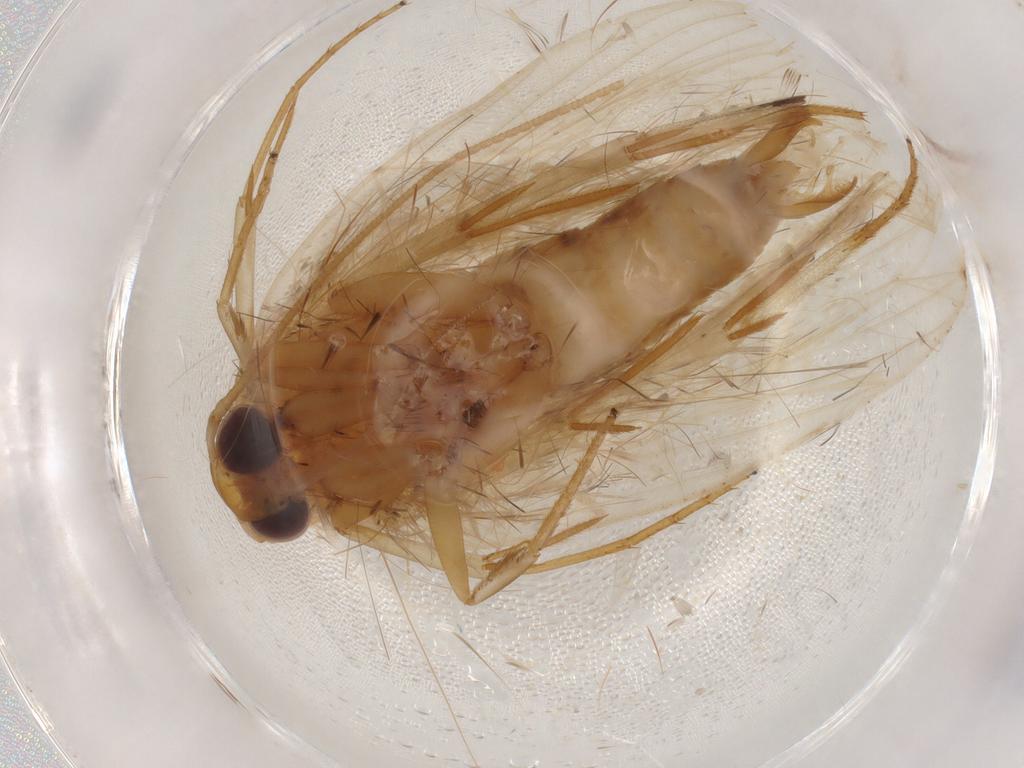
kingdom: Animalia
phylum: Arthropoda
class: Insecta
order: Lepidoptera
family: Depressariidae
